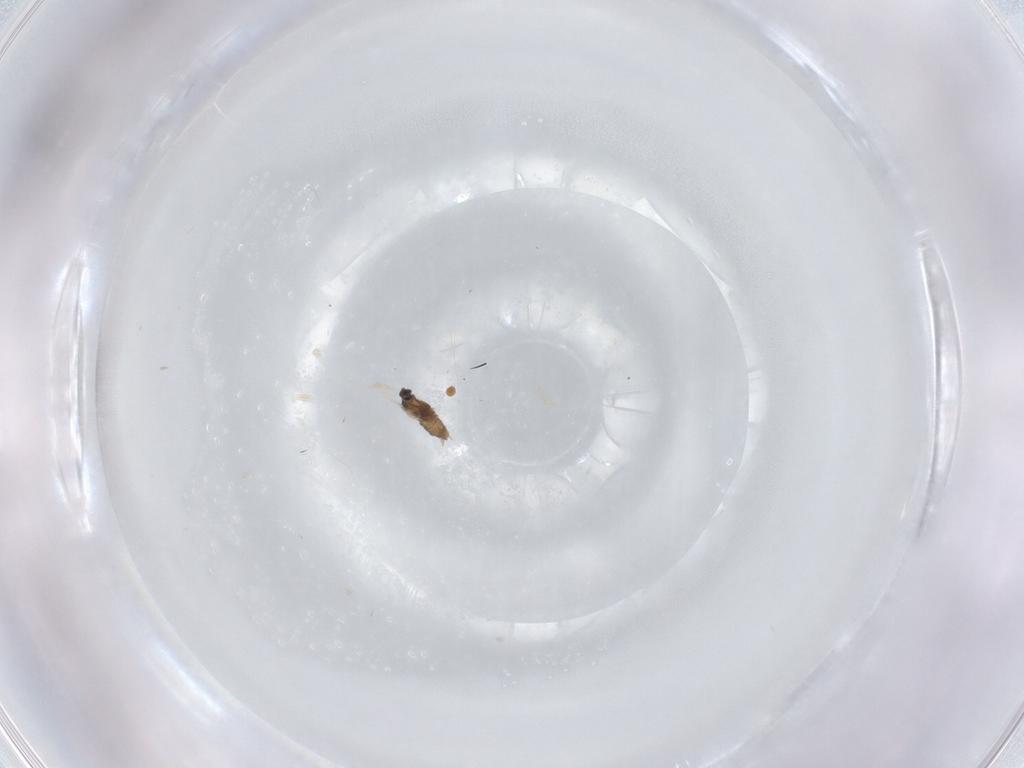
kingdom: Animalia
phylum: Arthropoda
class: Insecta
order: Diptera
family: Cecidomyiidae
